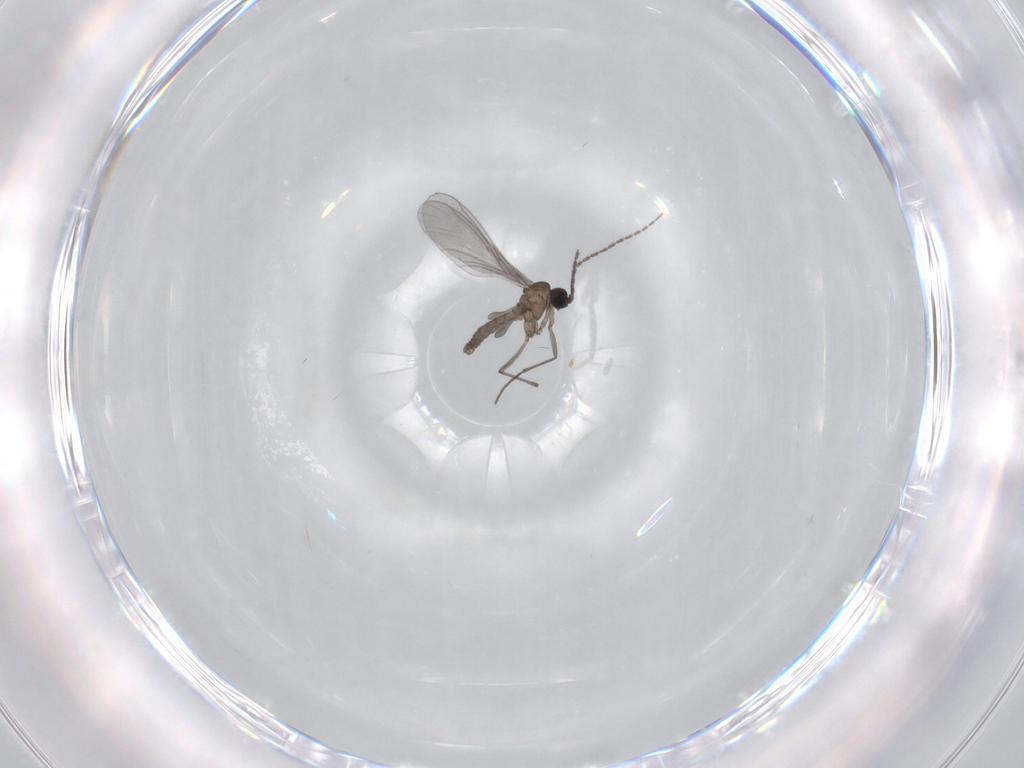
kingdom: Animalia
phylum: Arthropoda
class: Insecta
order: Diptera
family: Sciaridae
